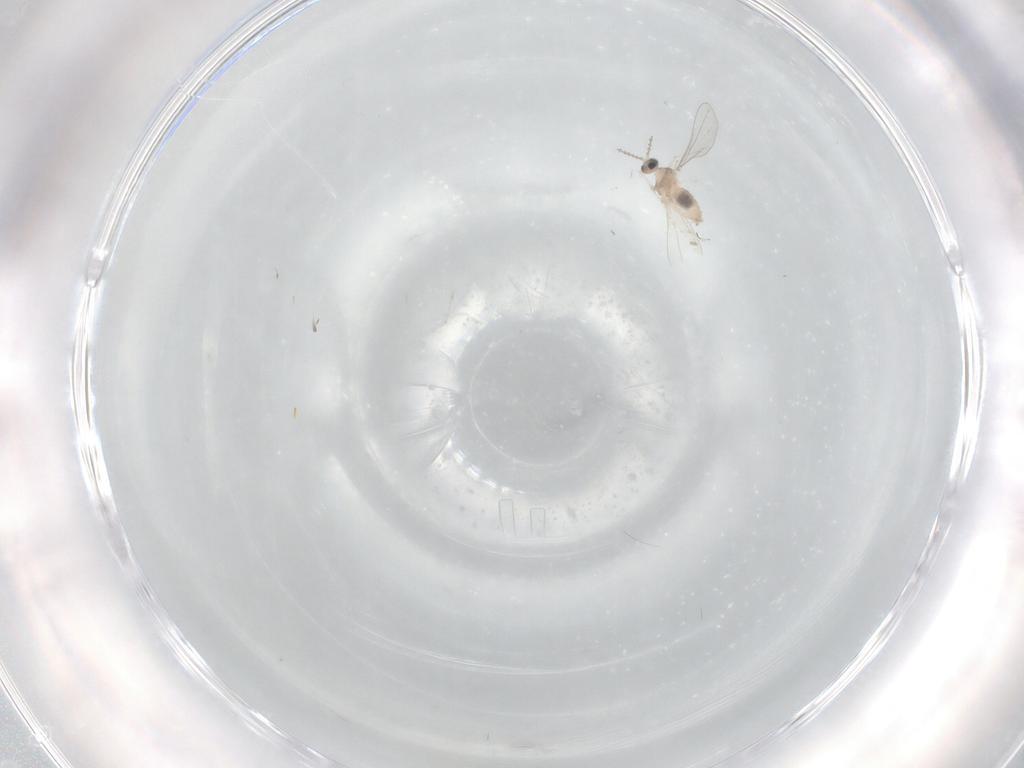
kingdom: Animalia
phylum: Arthropoda
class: Insecta
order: Diptera
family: Cecidomyiidae
